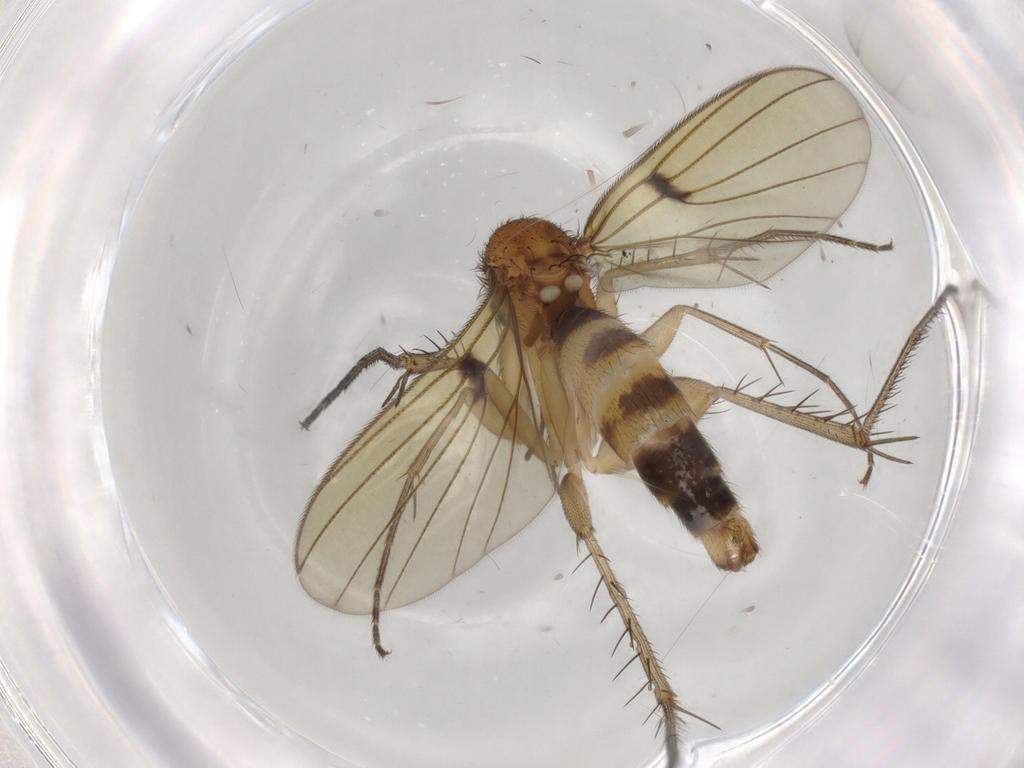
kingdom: Animalia
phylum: Arthropoda
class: Insecta
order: Diptera
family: Mycetophilidae
